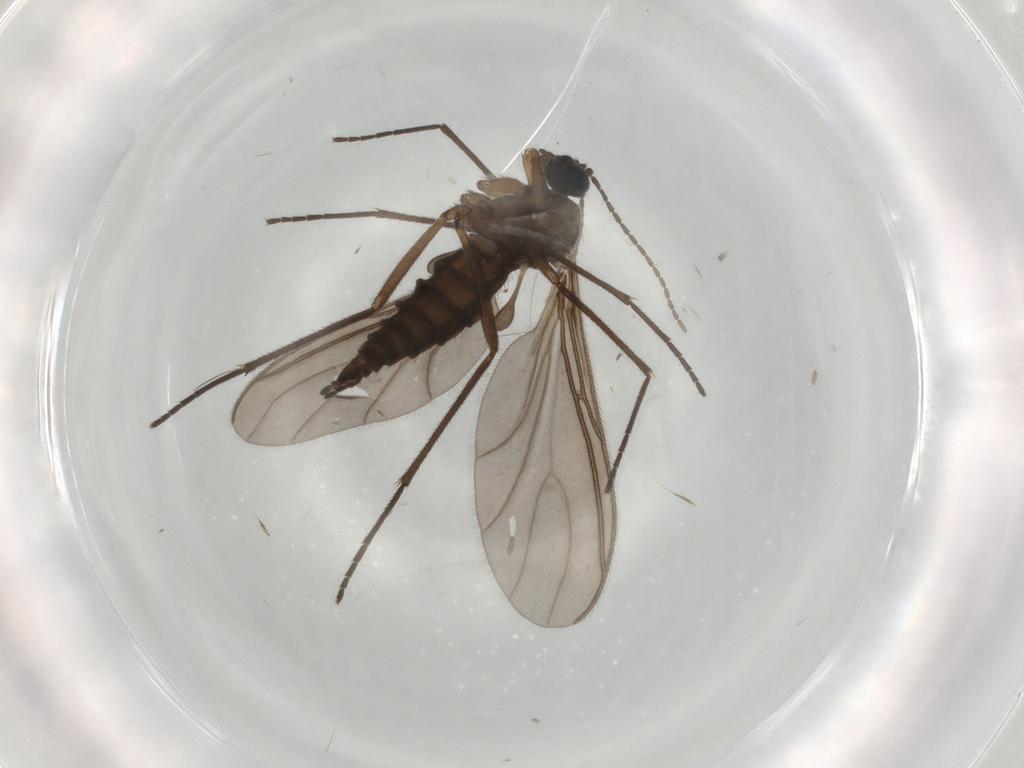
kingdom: Animalia
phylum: Arthropoda
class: Insecta
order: Diptera
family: Sciaridae
